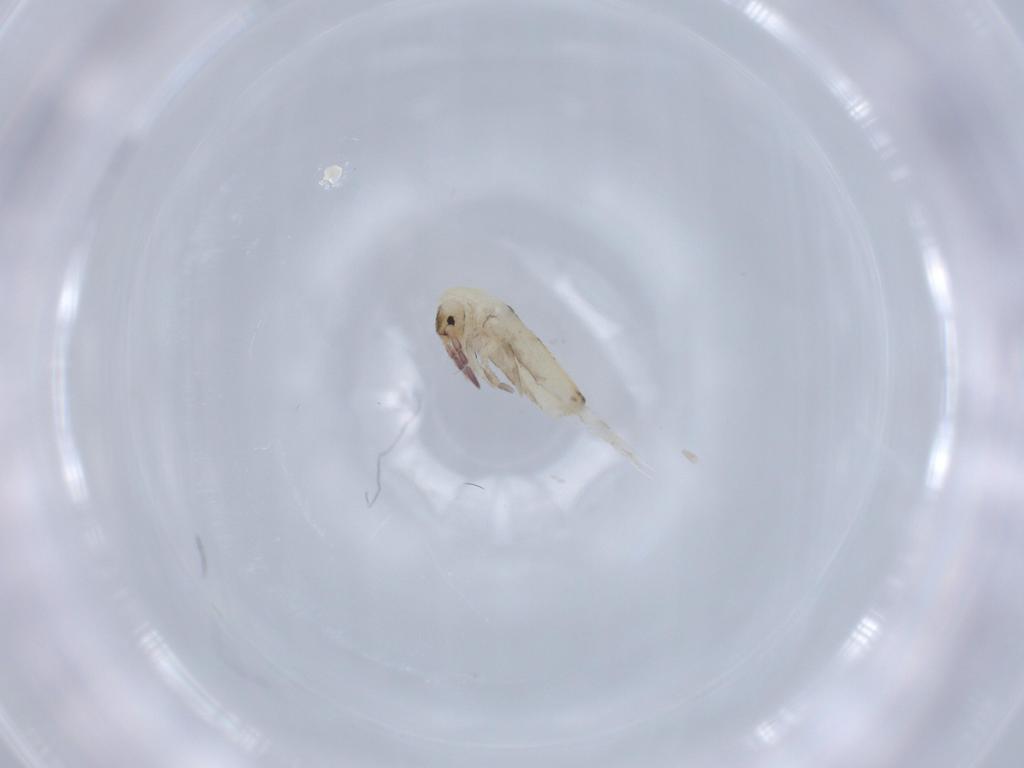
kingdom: Animalia
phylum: Arthropoda
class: Collembola
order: Entomobryomorpha
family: Entomobryidae
